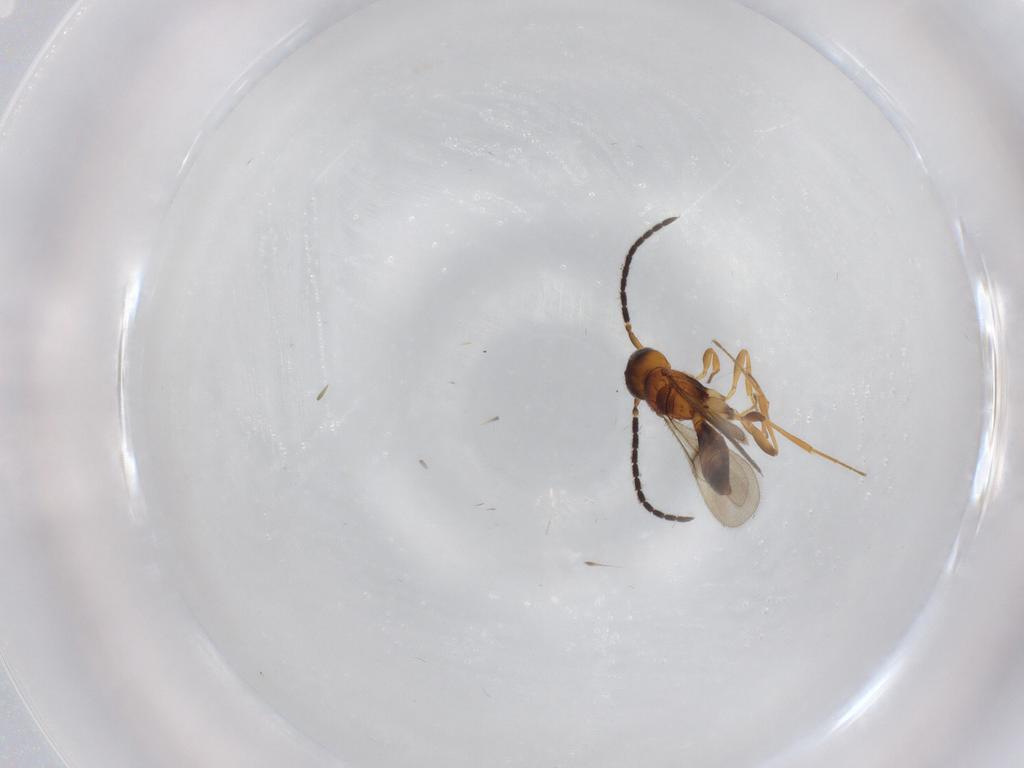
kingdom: Animalia
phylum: Arthropoda
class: Insecta
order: Hymenoptera
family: Scelionidae
